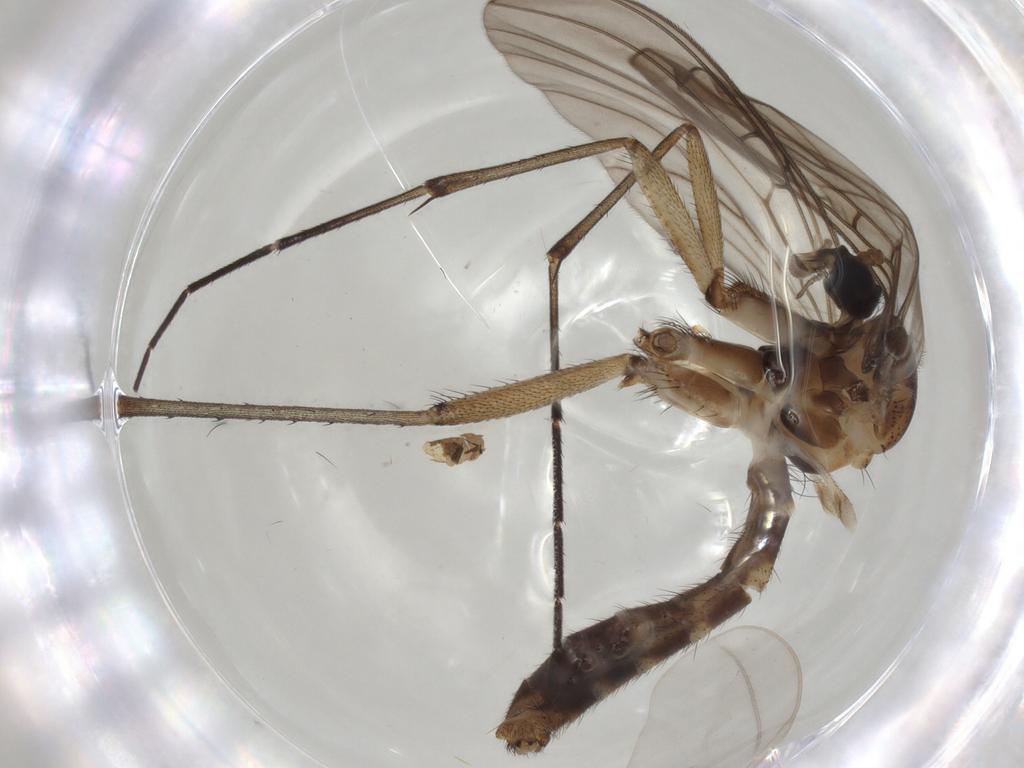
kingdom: Animalia
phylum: Arthropoda
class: Insecta
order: Diptera
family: Mycetophilidae
